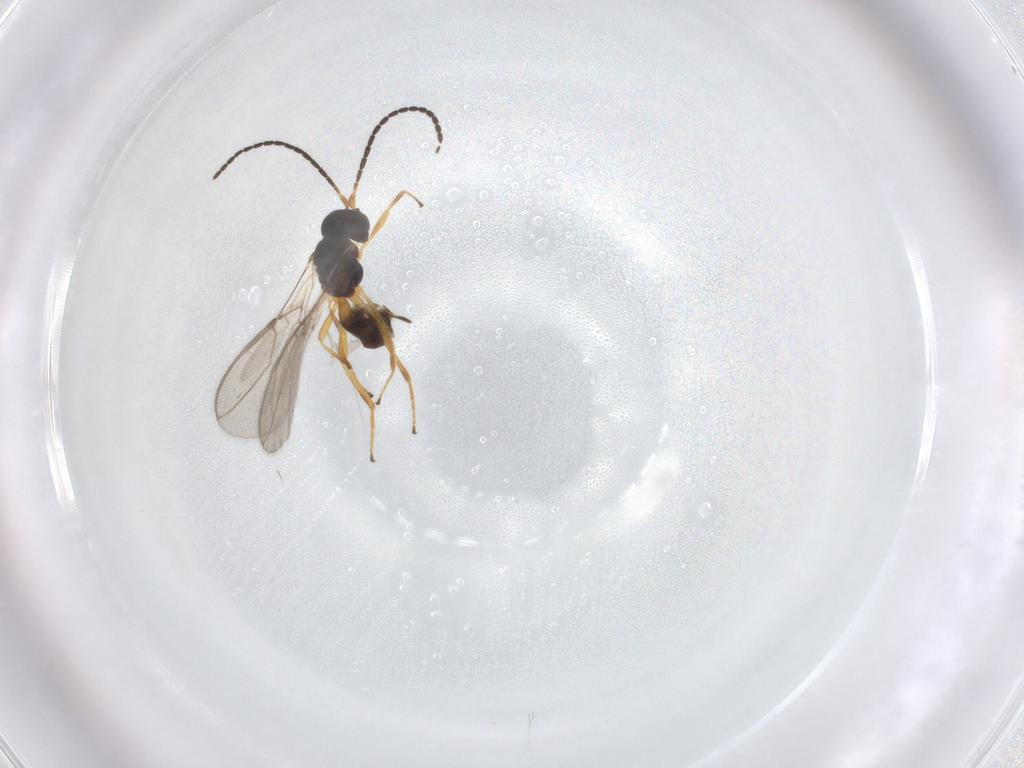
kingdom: Animalia
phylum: Arthropoda
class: Insecta
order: Hymenoptera
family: Braconidae
